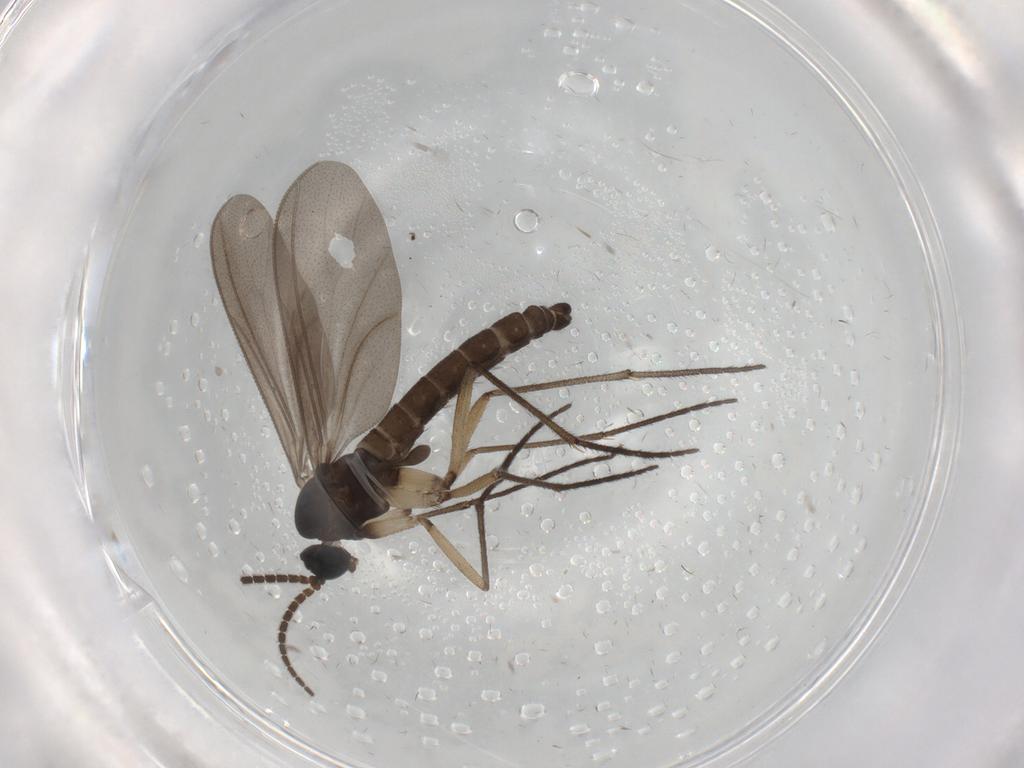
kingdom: Animalia
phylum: Arthropoda
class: Insecta
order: Diptera
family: Sciaridae
